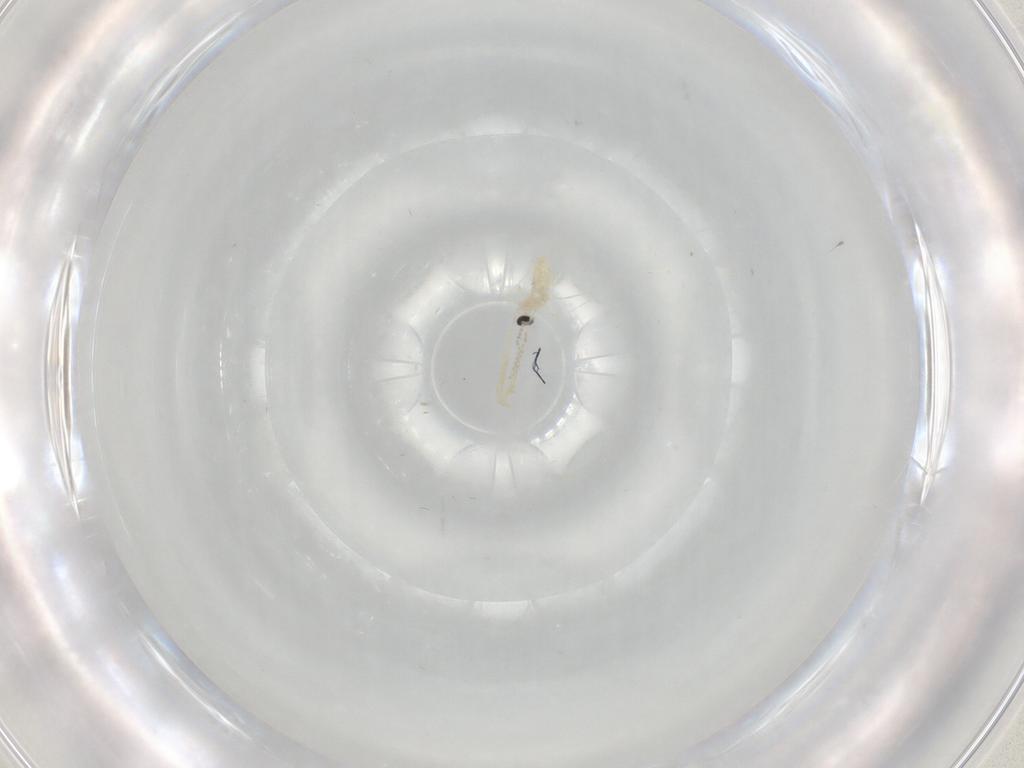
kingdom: Animalia
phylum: Arthropoda
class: Insecta
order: Diptera
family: Cecidomyiidae
